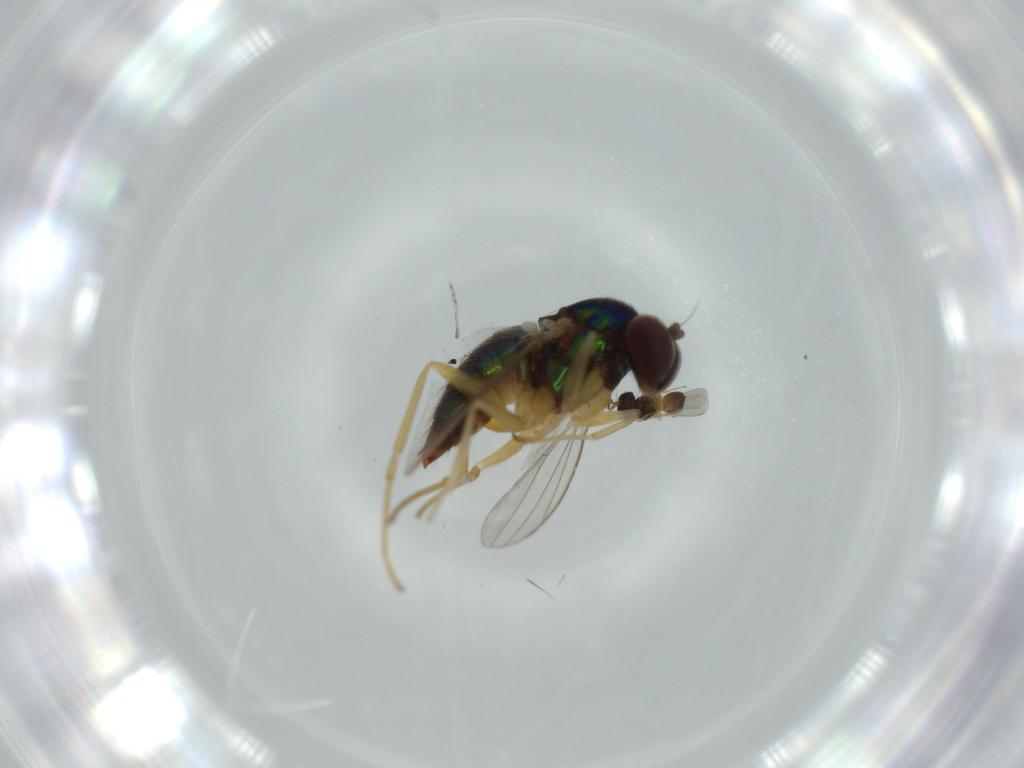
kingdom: Animalia
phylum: Arthropoda
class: Insecta
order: Diptera
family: Dolichopodidae
